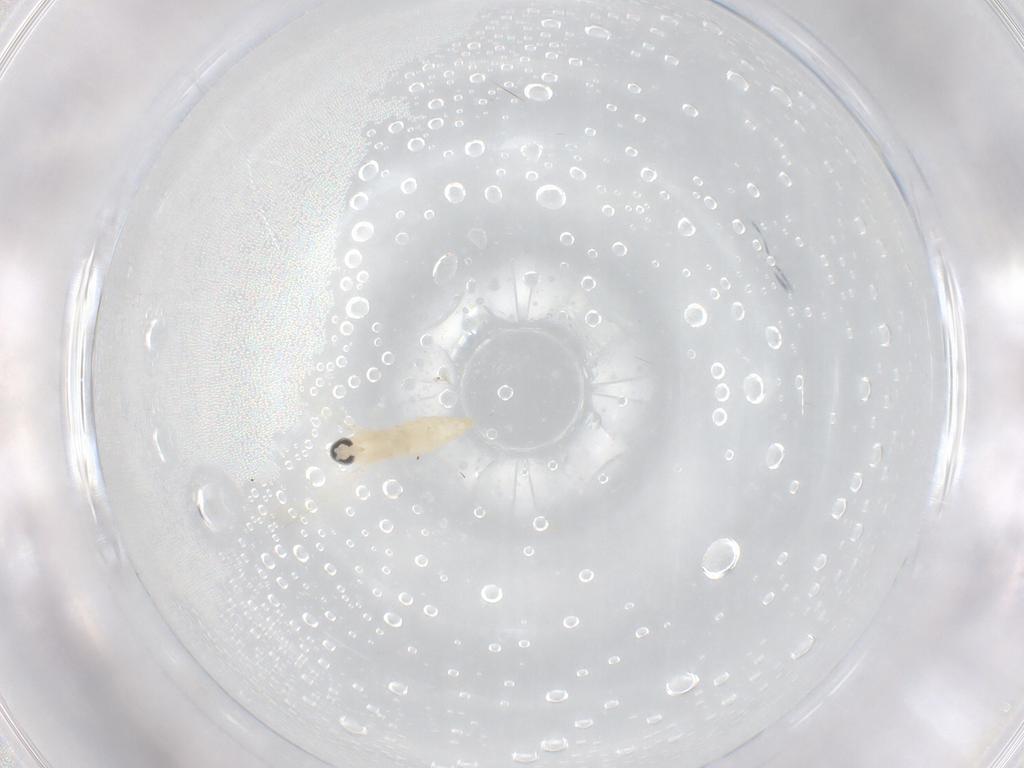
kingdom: Animalia
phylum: Arthropoda
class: Insecta
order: Diptera
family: Cecidomyiidae
